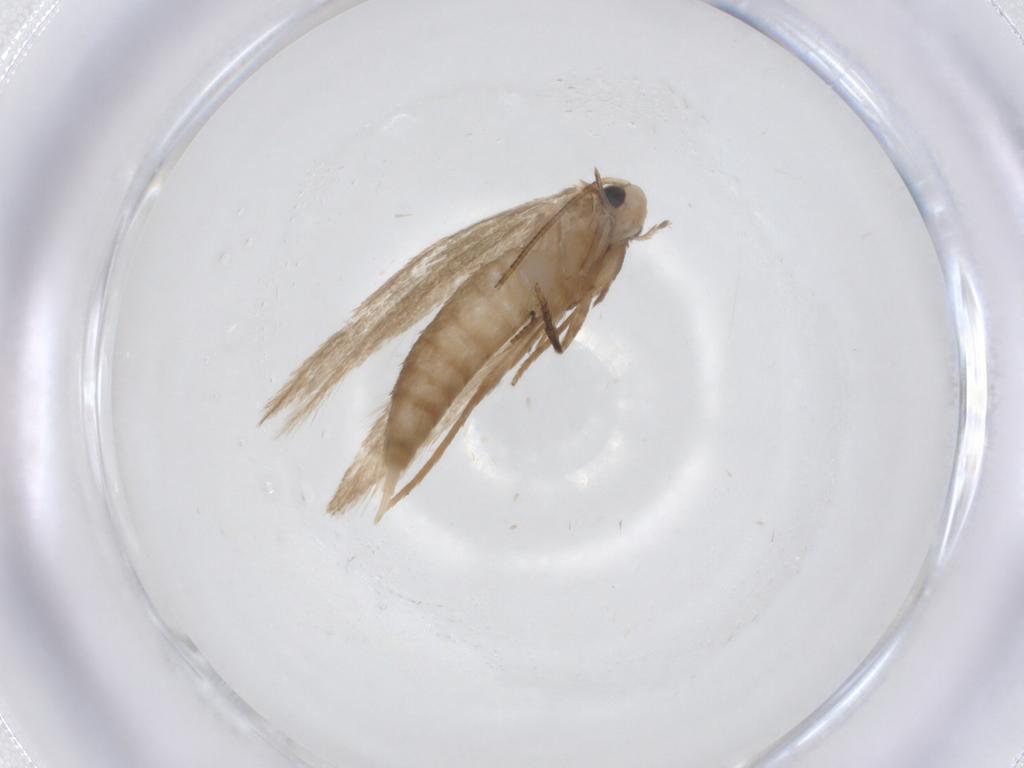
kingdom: Animalia
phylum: Arthropoda
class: Insecta
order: Lepidoptera
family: Tineidae
